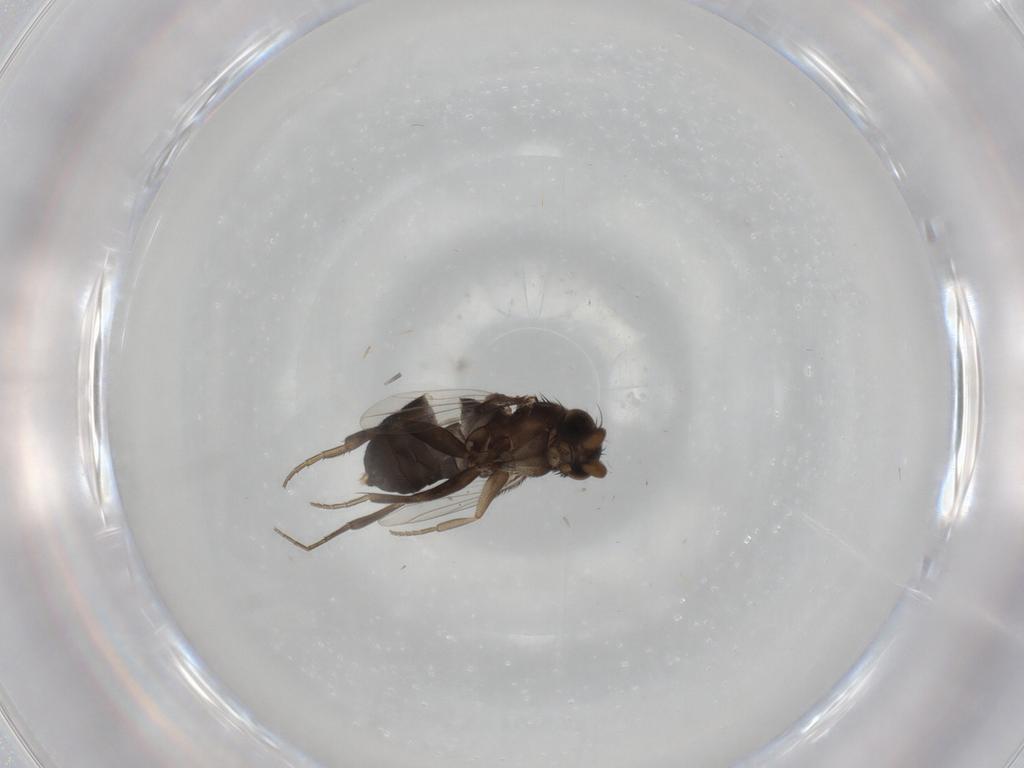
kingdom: Animalia
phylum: Arthropoda
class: Insecta
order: Diptera
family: Phoridae
